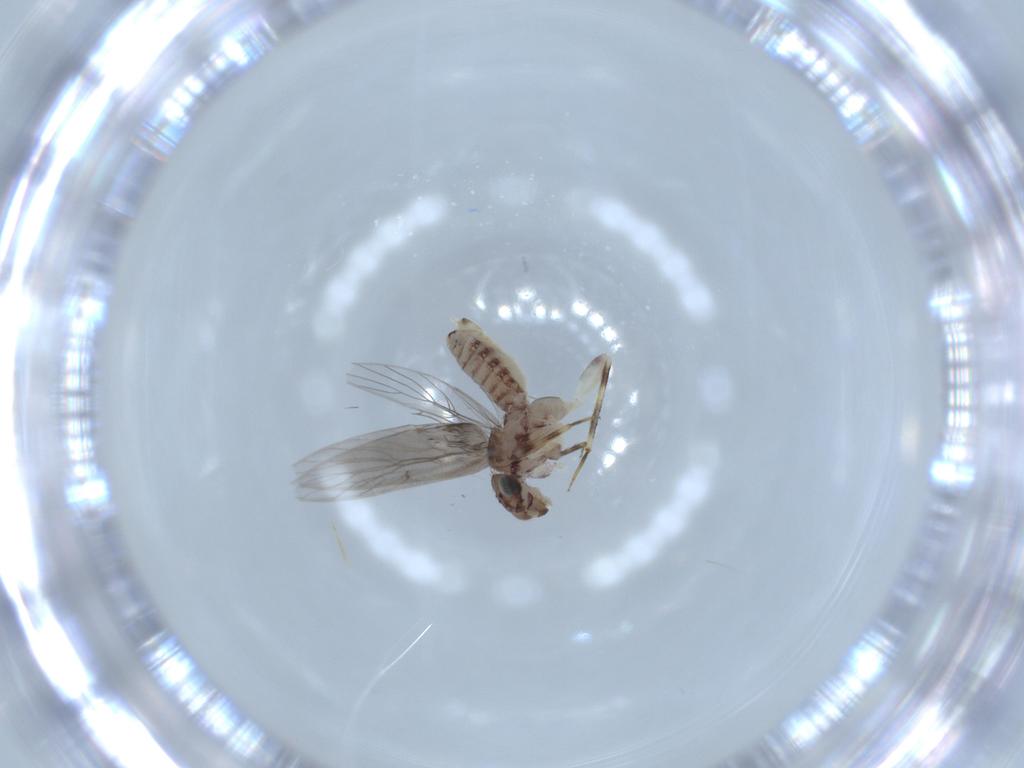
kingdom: Animalia
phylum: Arthropoda
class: Insecta
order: Psocodea
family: Lepidopsocidae
